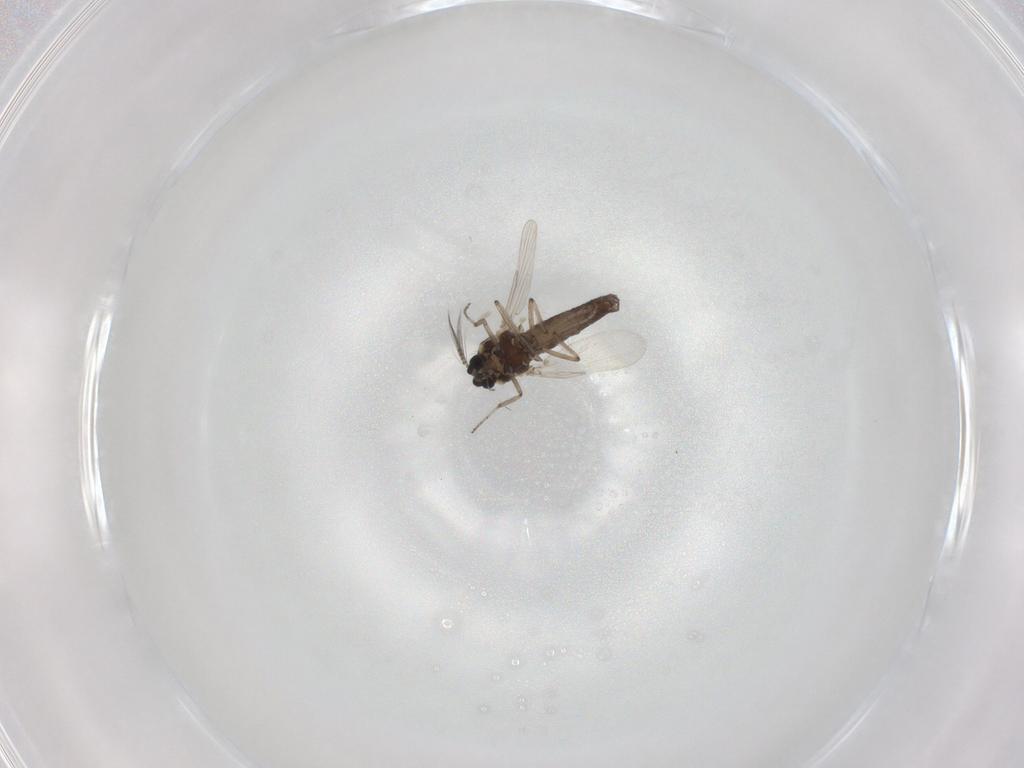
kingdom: Animalia
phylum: Arthropoda
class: Insecta
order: Diptera
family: Ceratopogonidae
